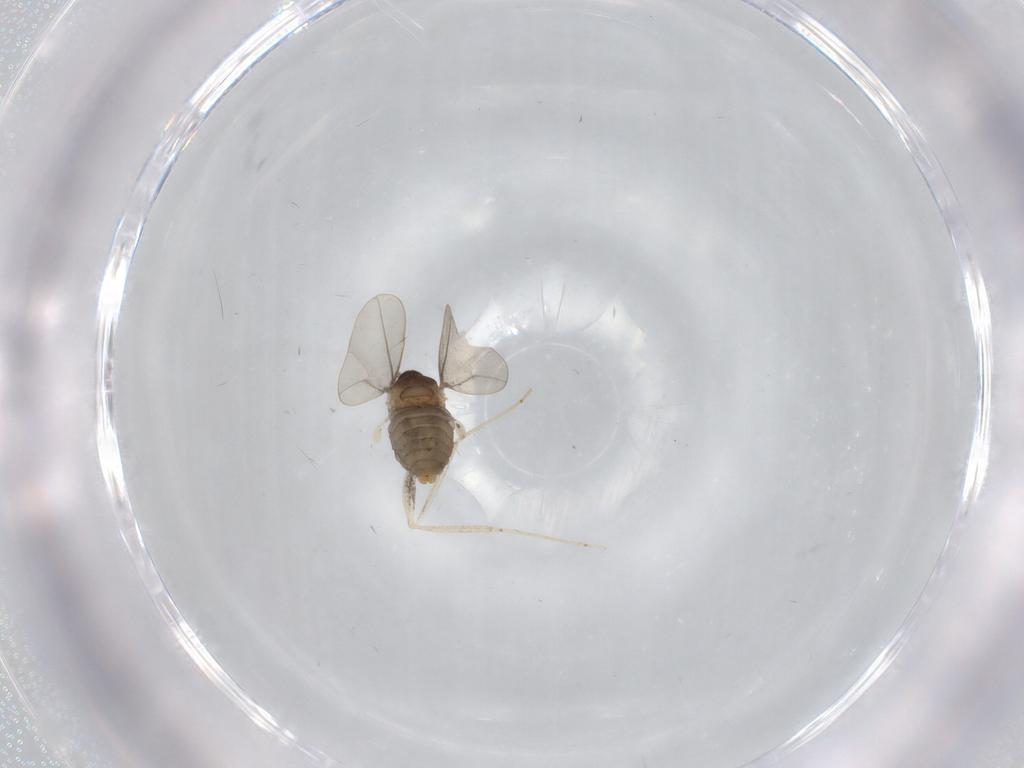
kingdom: Animalia
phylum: Arthropoda
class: Insecta
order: Diptera
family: Cecidomyiidae
